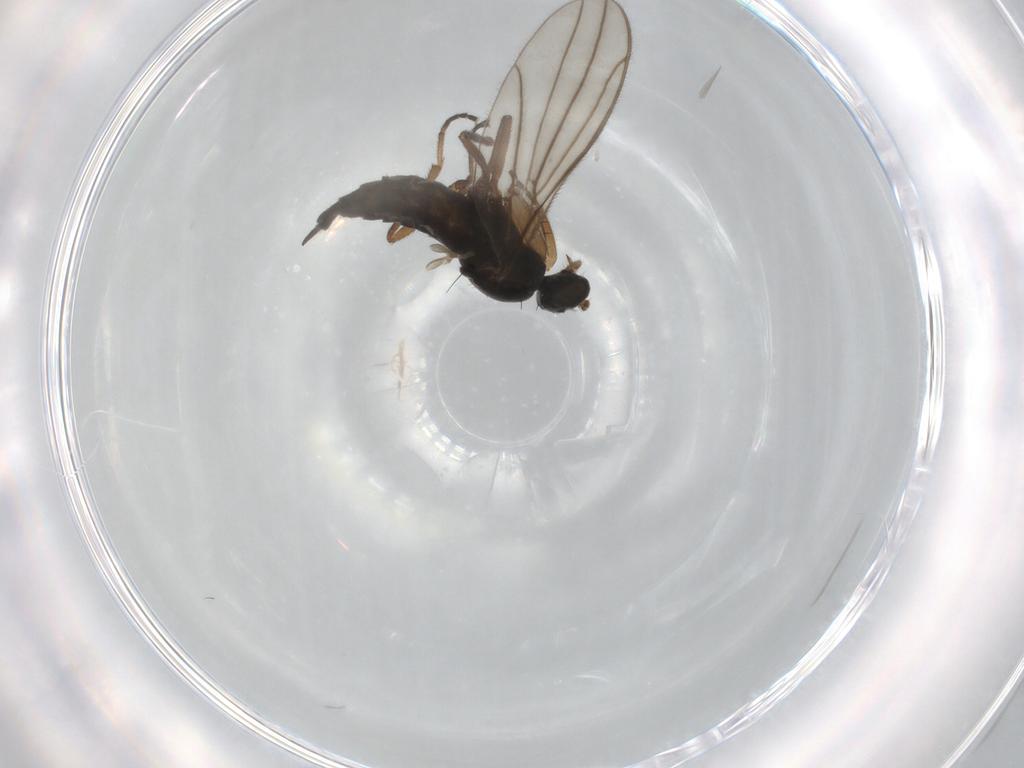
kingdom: Animalia
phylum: Arthropoda
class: Insecta
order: Diptera
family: Empididae
